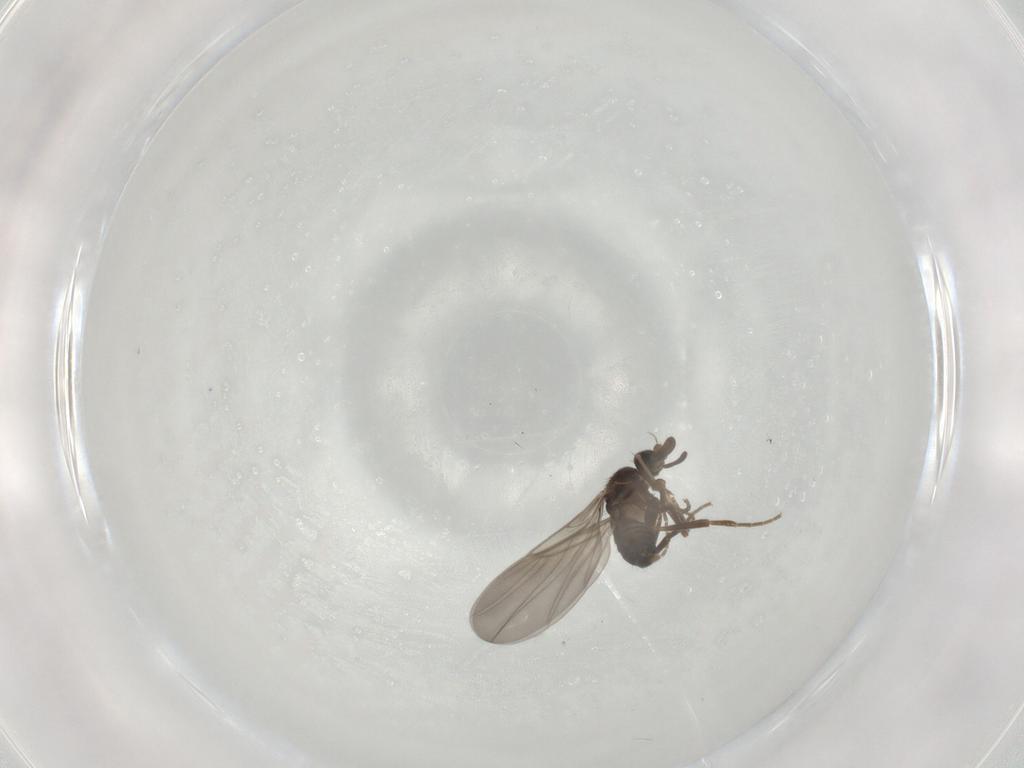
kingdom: Animalia
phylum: Arthropoda
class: Insecta
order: Diptera
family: Chironomidae
